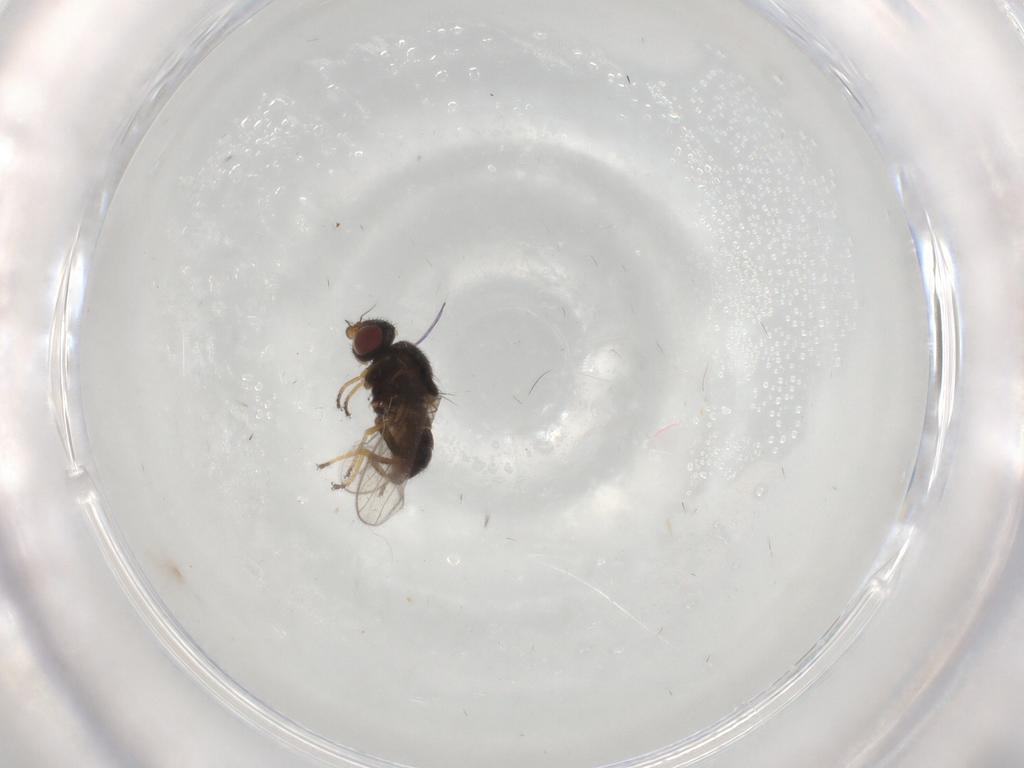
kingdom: Animalia
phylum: Arthropoda
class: Insecta
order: Diptera
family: Chloropidae
